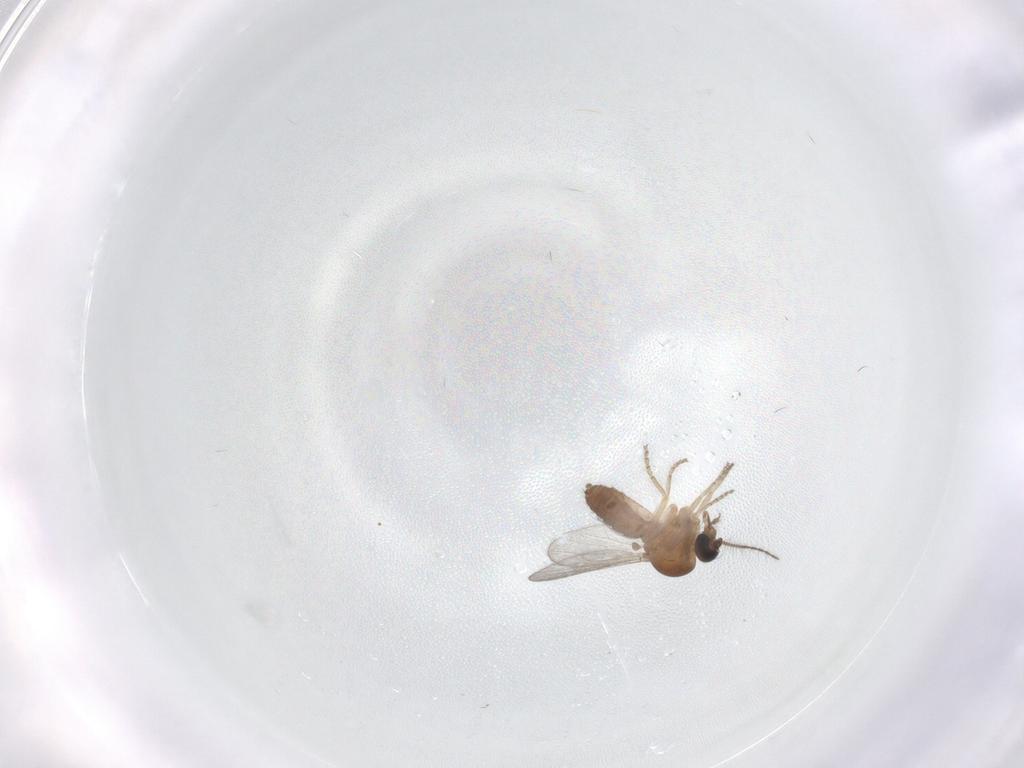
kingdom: Animalia
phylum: Arthropoda
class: Insecta
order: Diptera
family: Ceratopogonidae
